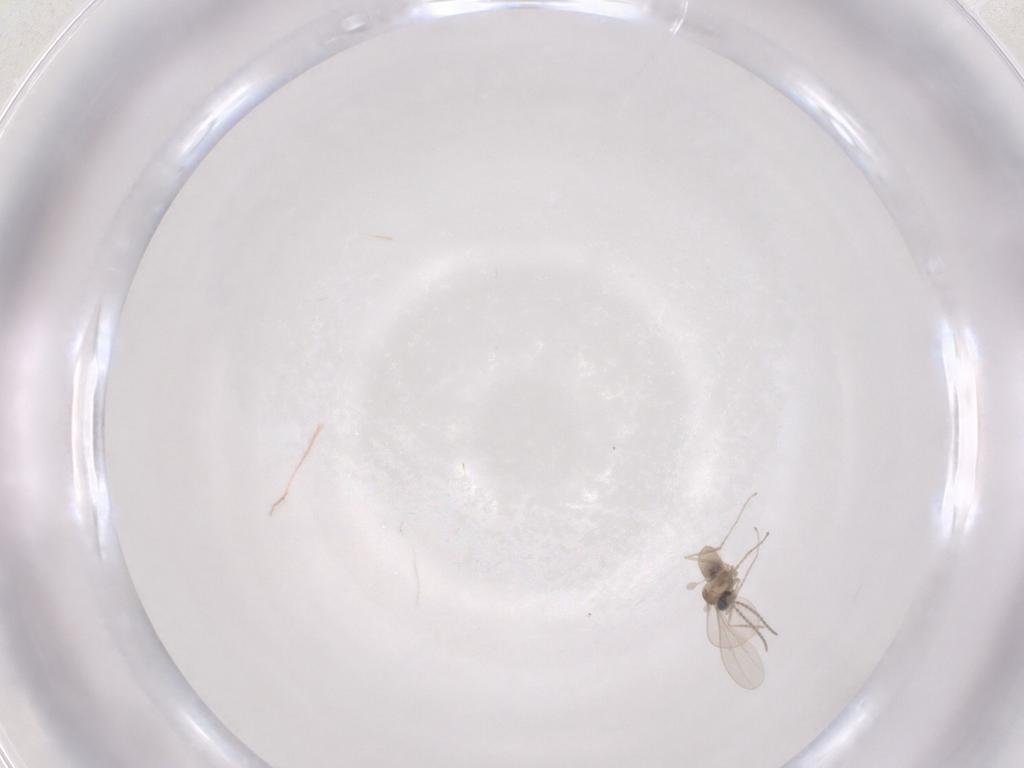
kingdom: Animalia
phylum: Arthropoda
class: Insecta
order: Diptera
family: Cecidomyiidae
